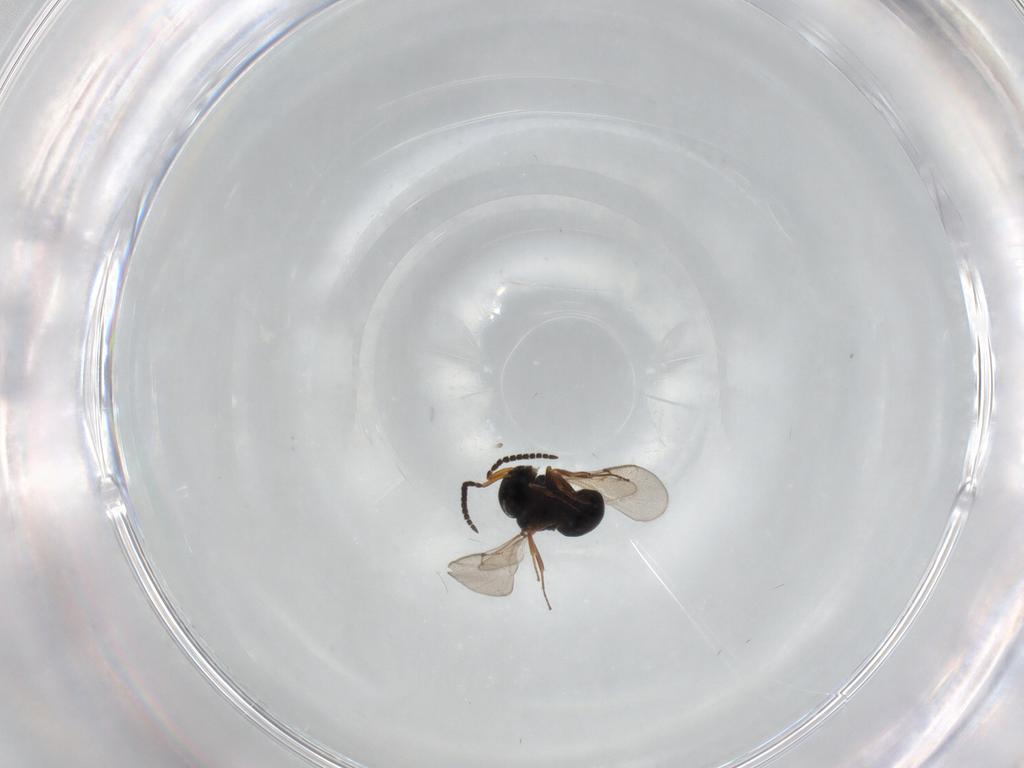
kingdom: Animalia
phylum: Arthropoda
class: Insecta
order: Hymenoptera
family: Scelionidae
